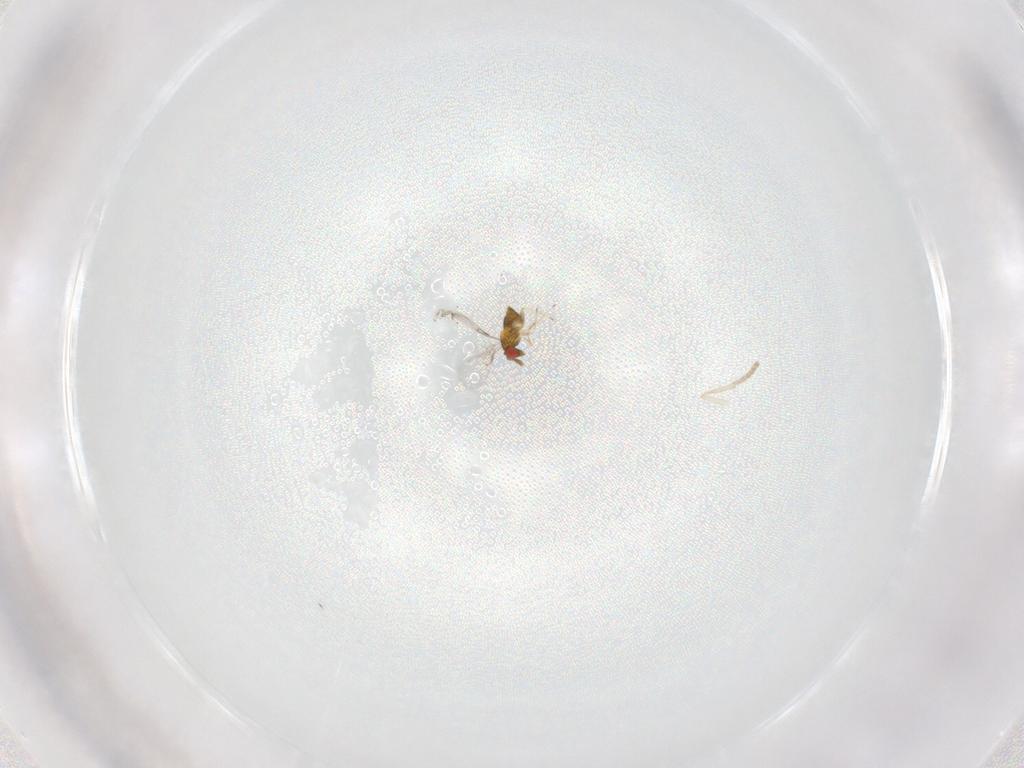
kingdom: Animalia
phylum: Arthropoda
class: Insecta
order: Hymenoptera
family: Trichogrammatidae
